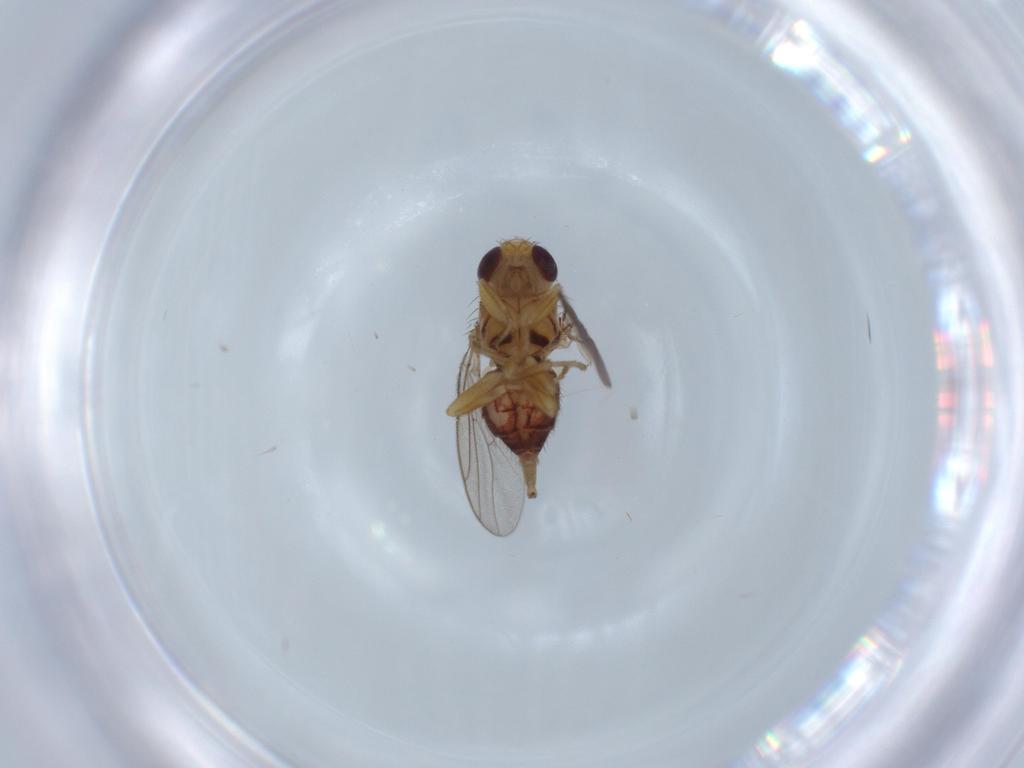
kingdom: Animalia
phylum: Arthropoda
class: Insecta
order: Diptera
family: Chloropidae
